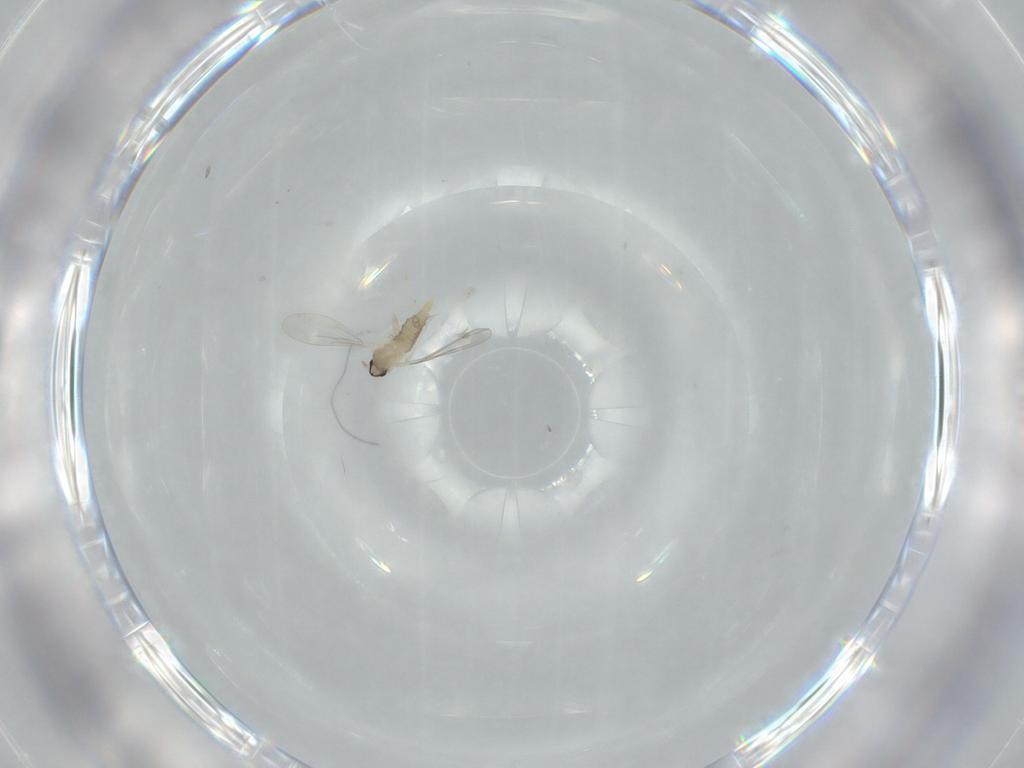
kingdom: Animalia
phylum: Arthropoda
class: Insecta
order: Diptera
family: Cecidomyiidae
